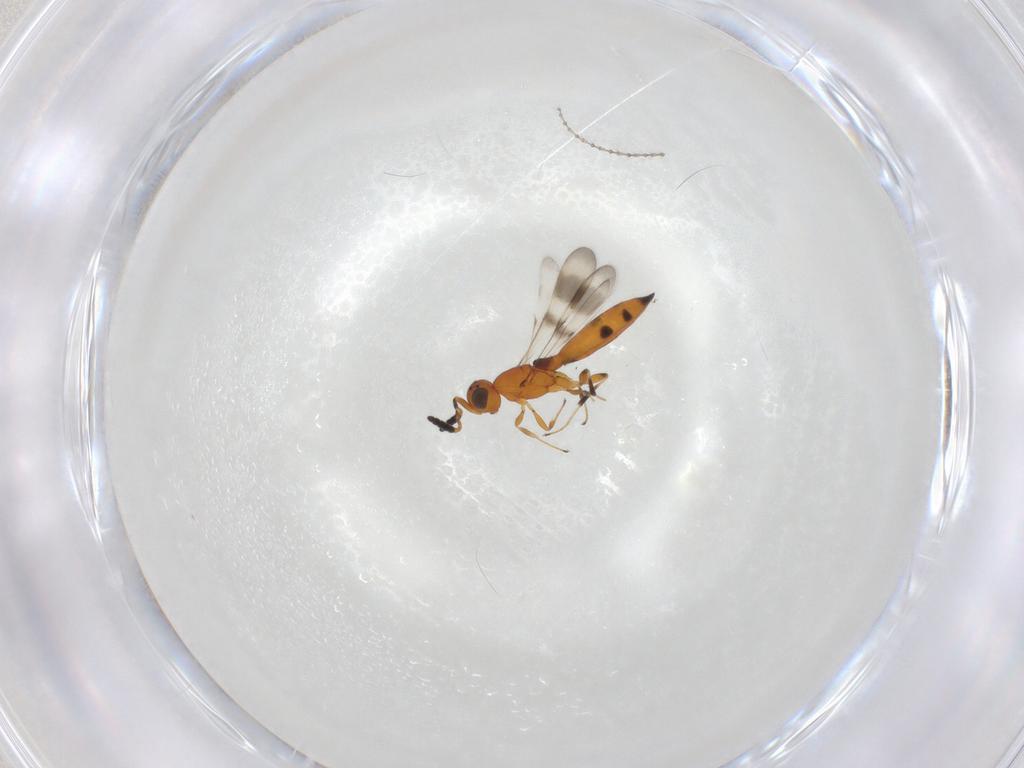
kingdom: Animalia
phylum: Arthropoda
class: Insecta
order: Hymenoptera
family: Scelionidae
